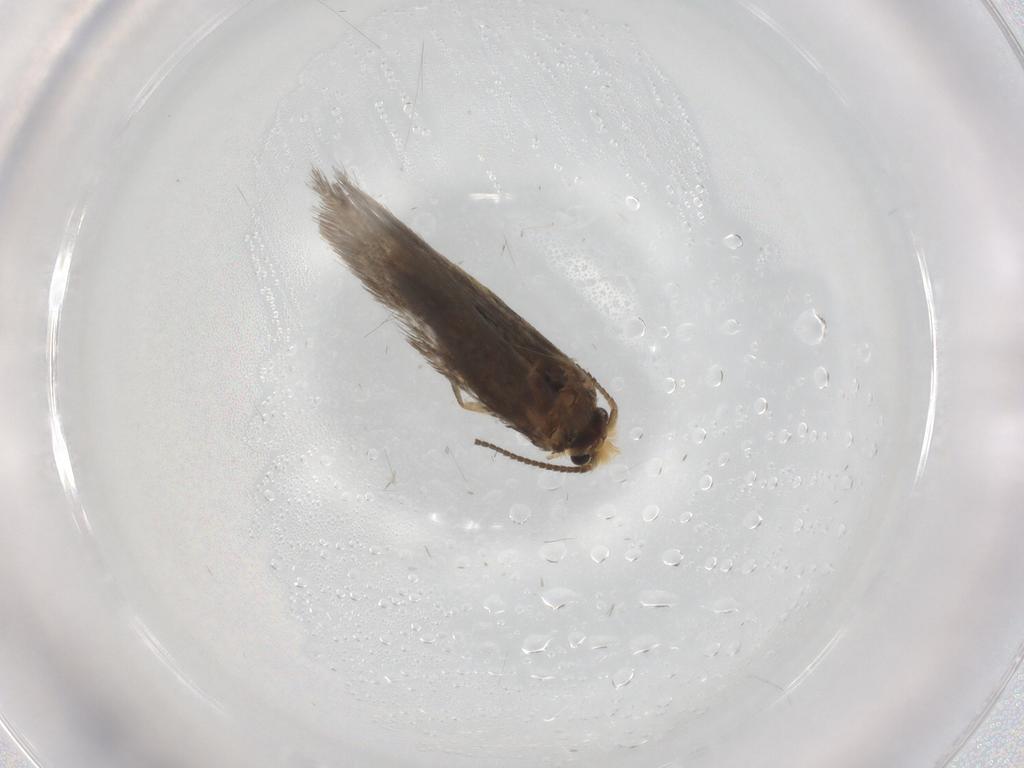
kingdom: Animalia
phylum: Arthropoda
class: Insecta
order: Lepidoptera
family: Nepticulidae
